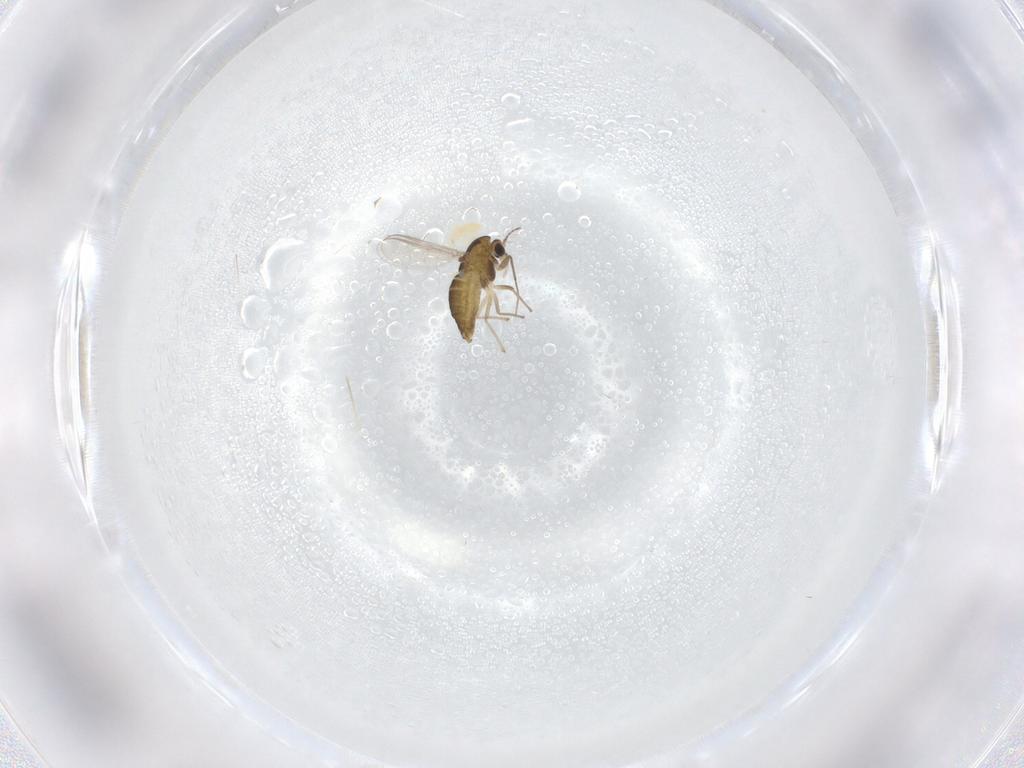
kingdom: Animalia
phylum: Arthropoda
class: Insecta
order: Diptera
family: Chironomidae
